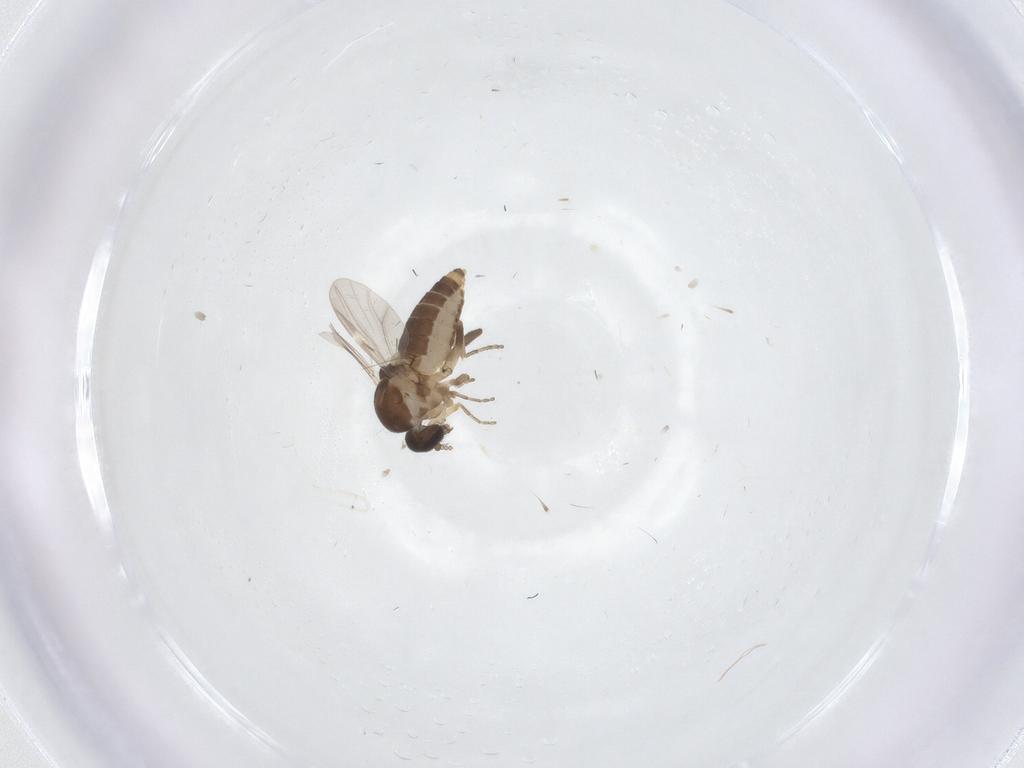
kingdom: Animalia
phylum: Arthropoda
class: Insecta
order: Diptera
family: Ceratopogonidae
